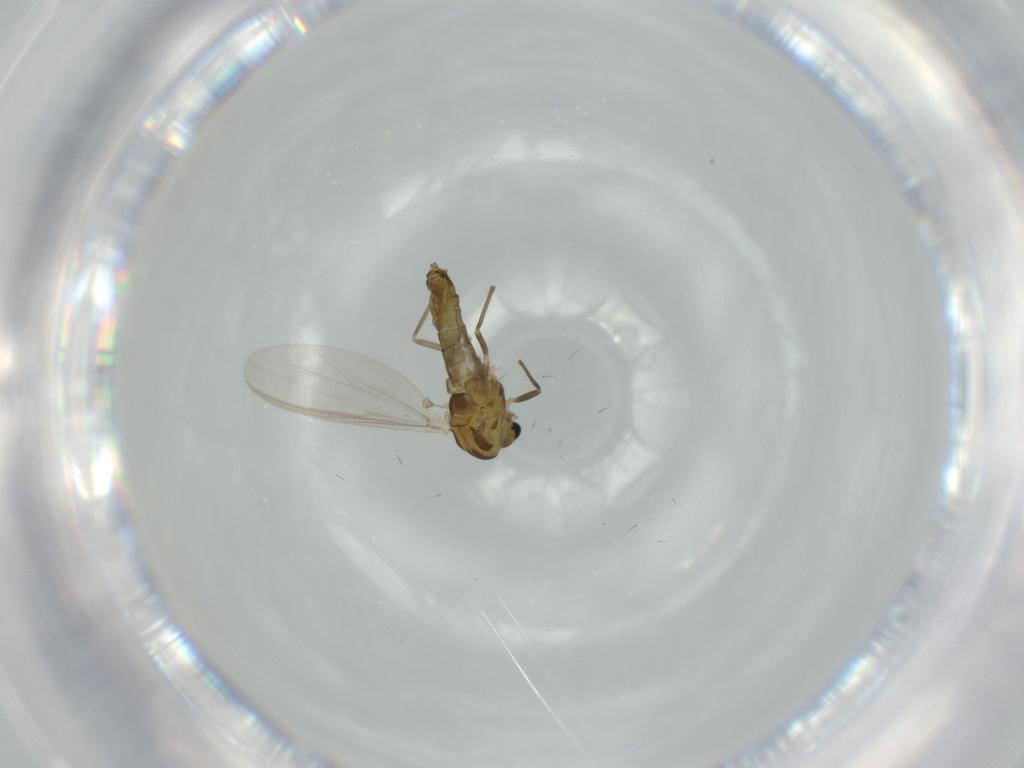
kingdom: Animalia
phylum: Arthropoda
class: Insecta
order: Diptera
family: Chironomidae
